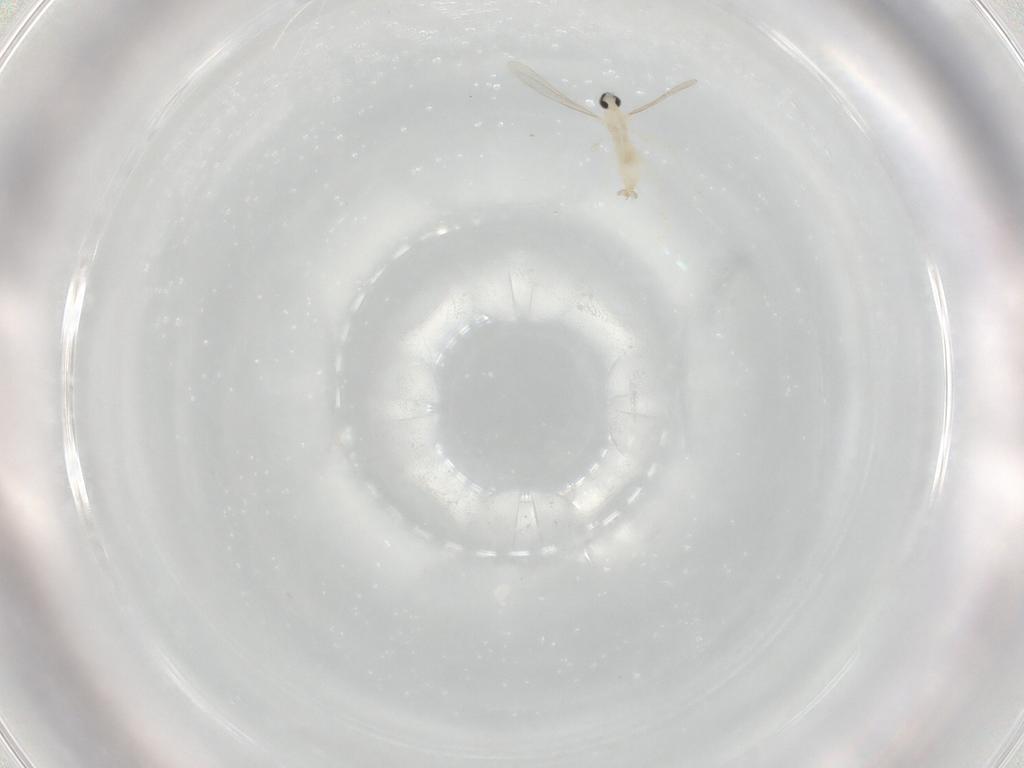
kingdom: Animalia
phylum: Arthropoda
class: Insecta
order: Diptera
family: Cecidomyiidae
